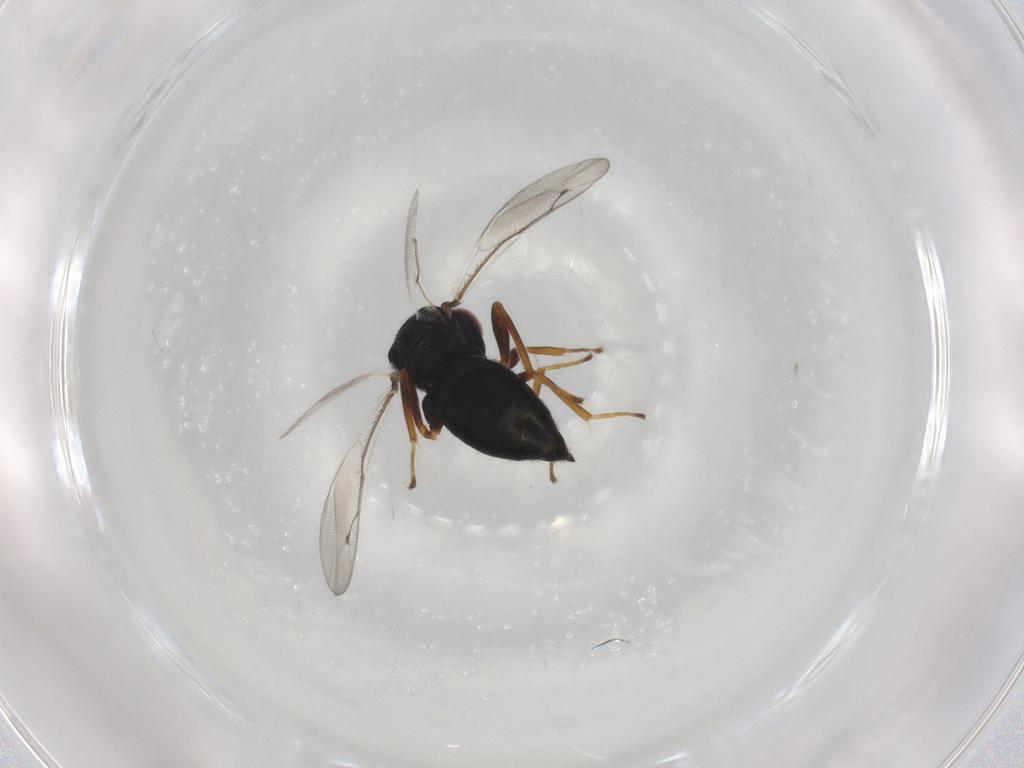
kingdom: Animalia
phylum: Arthropoda
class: Insecta
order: Hymenoptera
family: Pteromalidae
